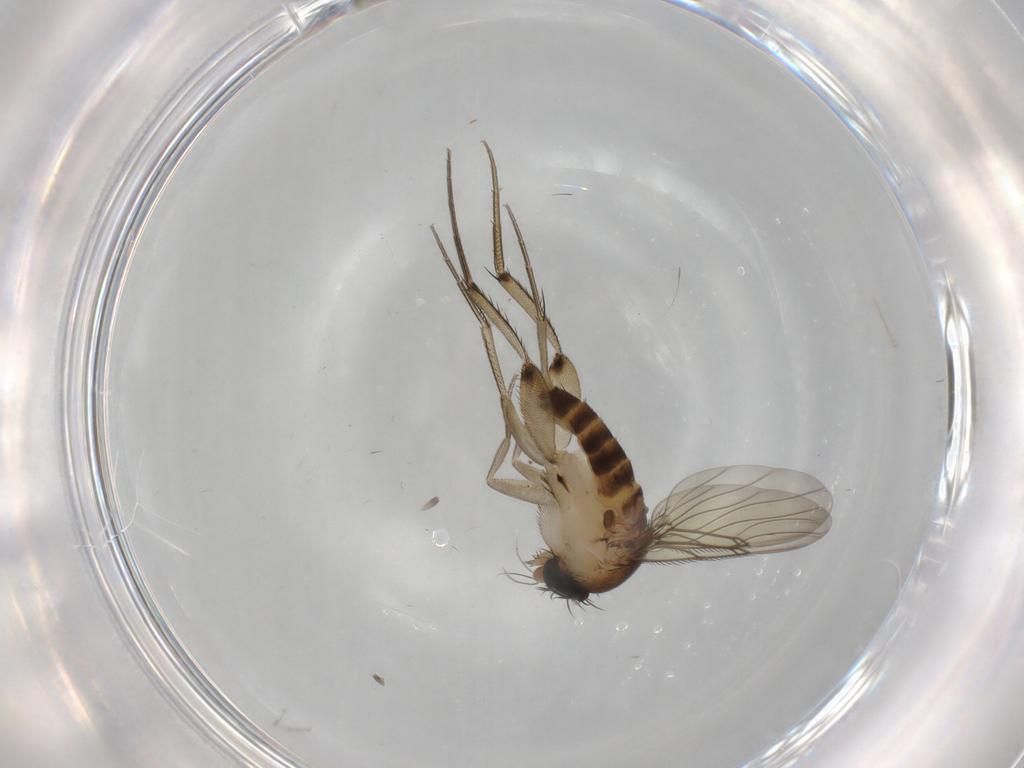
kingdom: Animalia
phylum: Arthropoda
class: Insecta
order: Diptera
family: Phoridae
